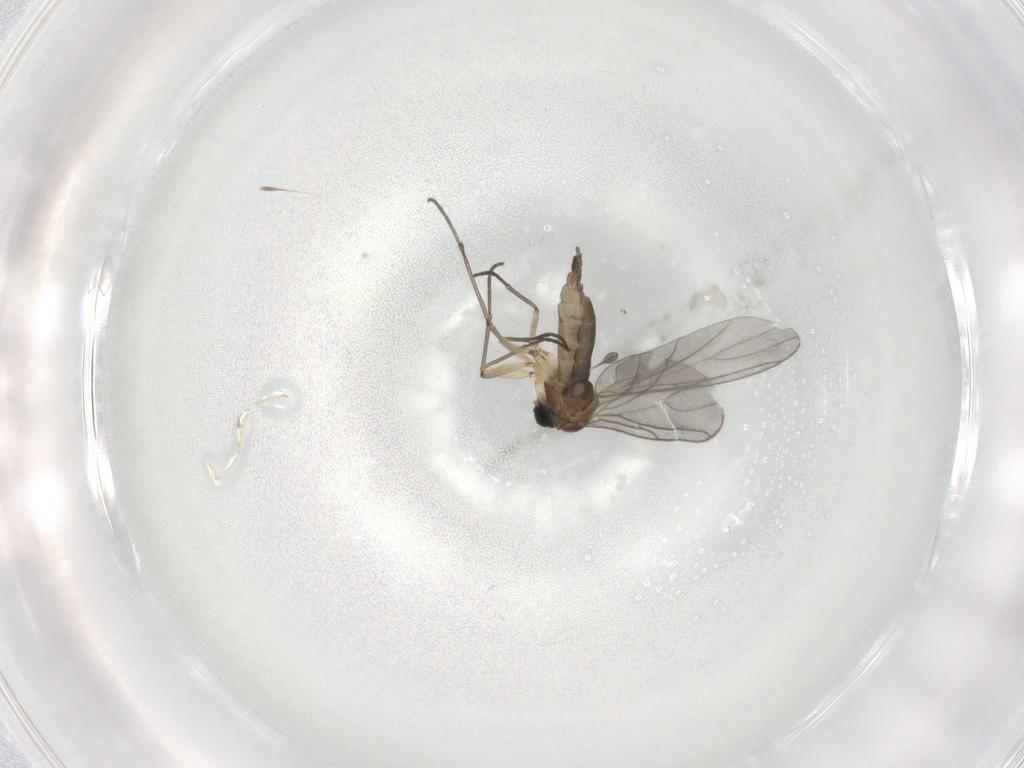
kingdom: Animalia
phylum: Arthropoda
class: Insecta
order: Diptera
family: Sciaridae
